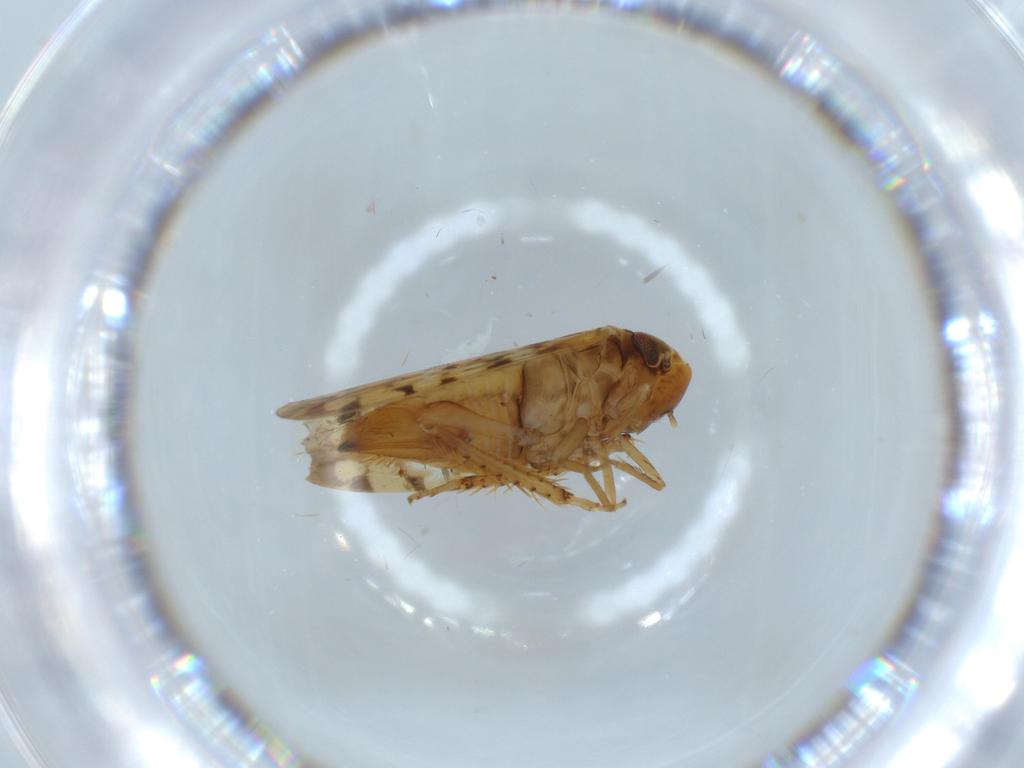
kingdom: Animalia
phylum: Arthropoda
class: Insecta
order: Hemiptera
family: Cicadellidae
